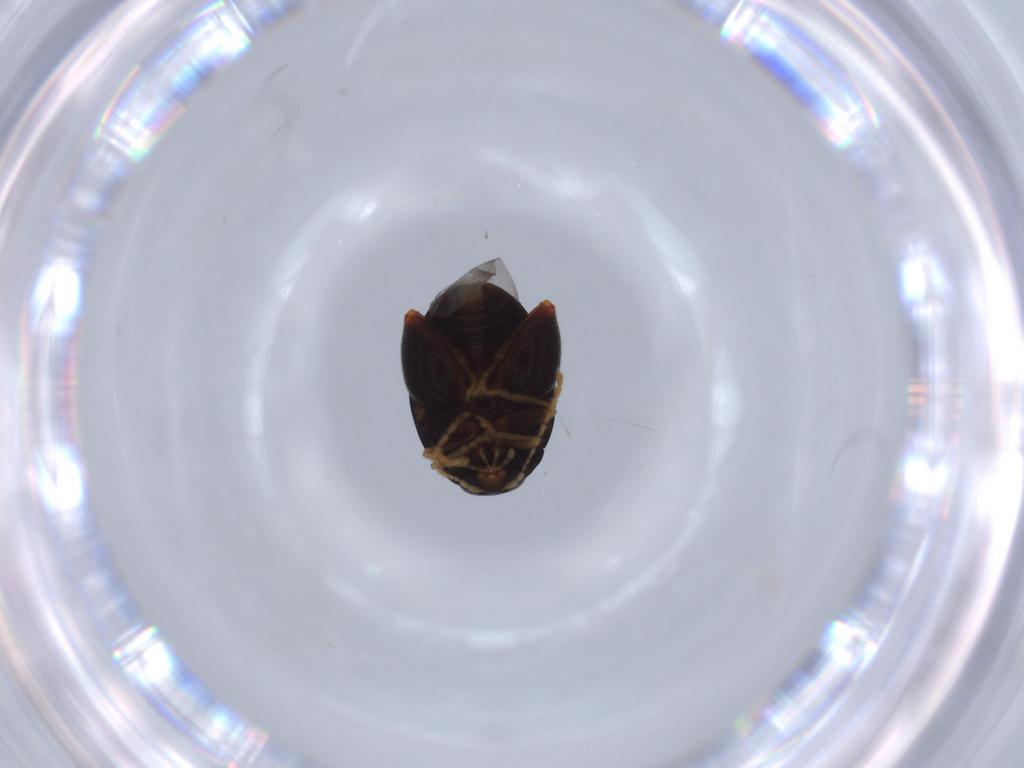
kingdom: Animalia
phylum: Arthropoda
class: Insecta
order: Coleoptera
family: Chrysomelidae
